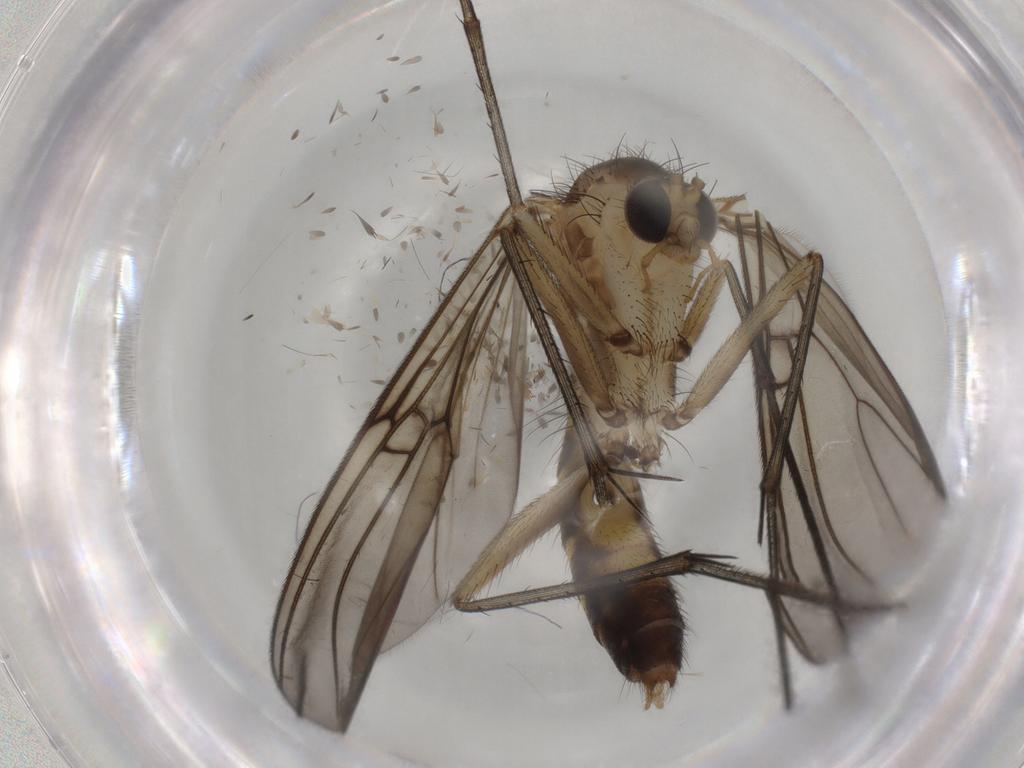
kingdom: Animalia
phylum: Arthropoda
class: Insecta
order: Diptera
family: Mycetophilidae
